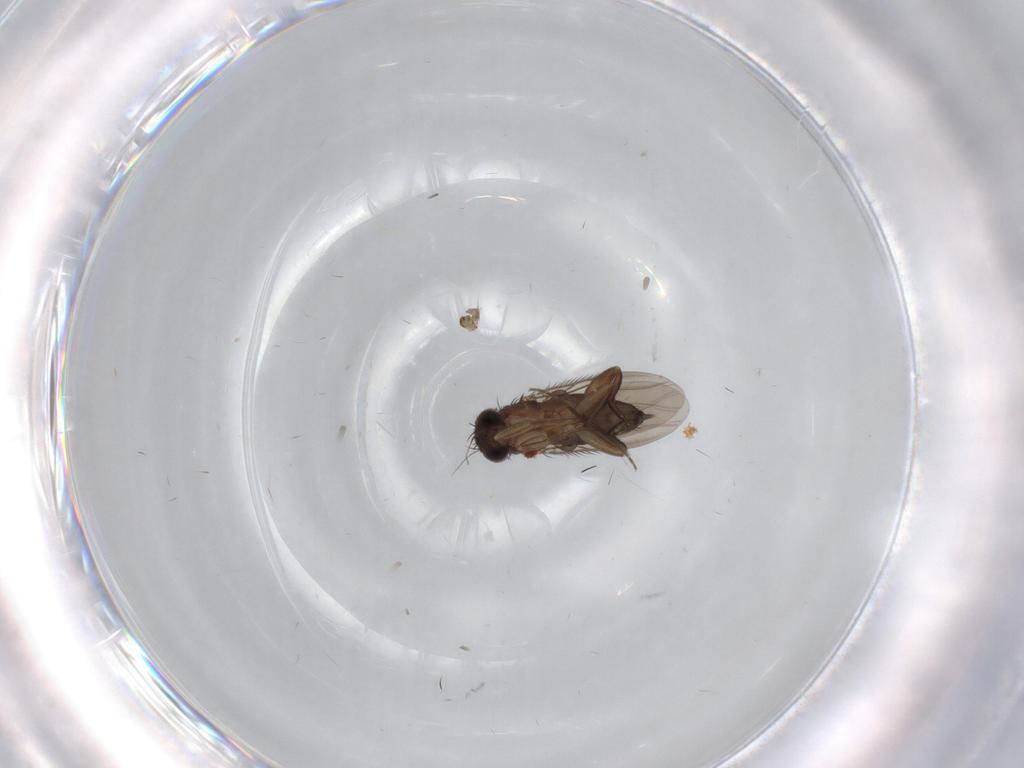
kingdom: Animalia
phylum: Arthropoda
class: Insecta
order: Diptera
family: Phoridae
